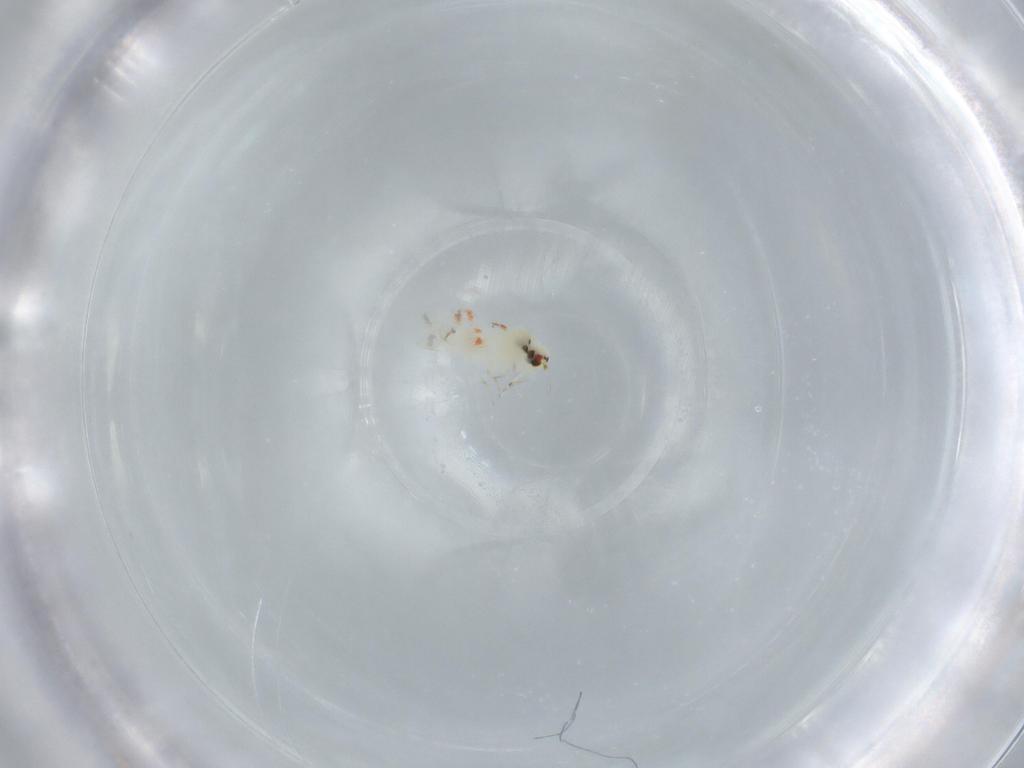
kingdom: Animalia
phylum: Arthropoda
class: Insecta
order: Hemiptera
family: Aleyrodidae
